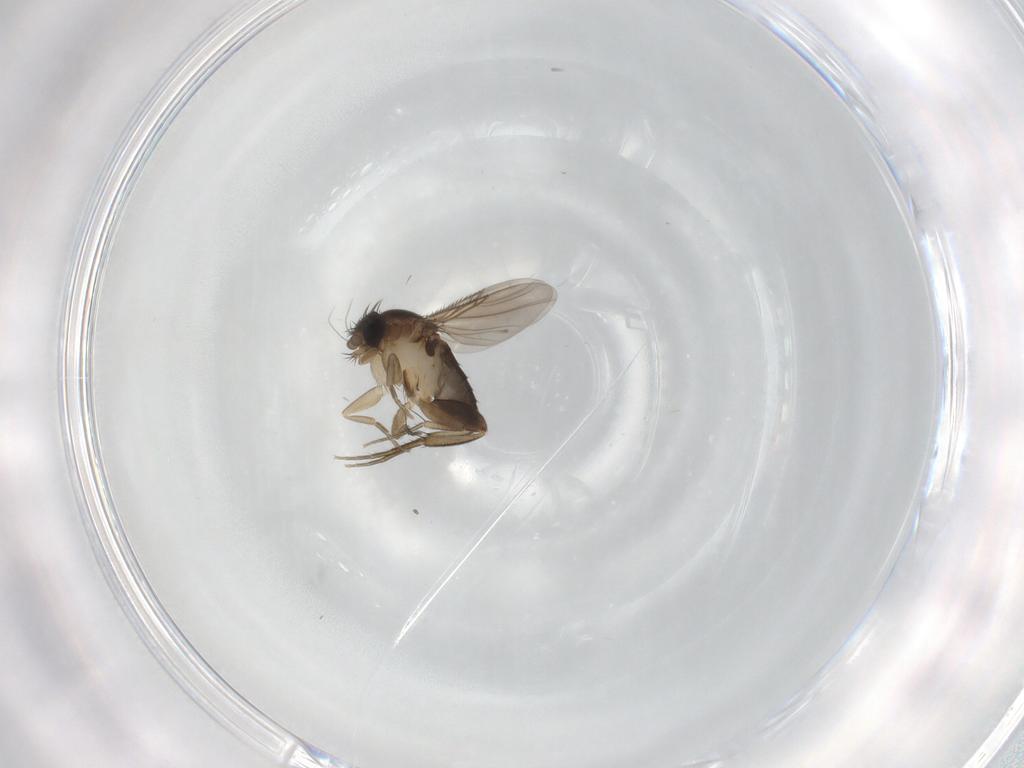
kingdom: Animalia
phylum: Arthropoda
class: Insecta
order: Diptera
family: Phoridae
